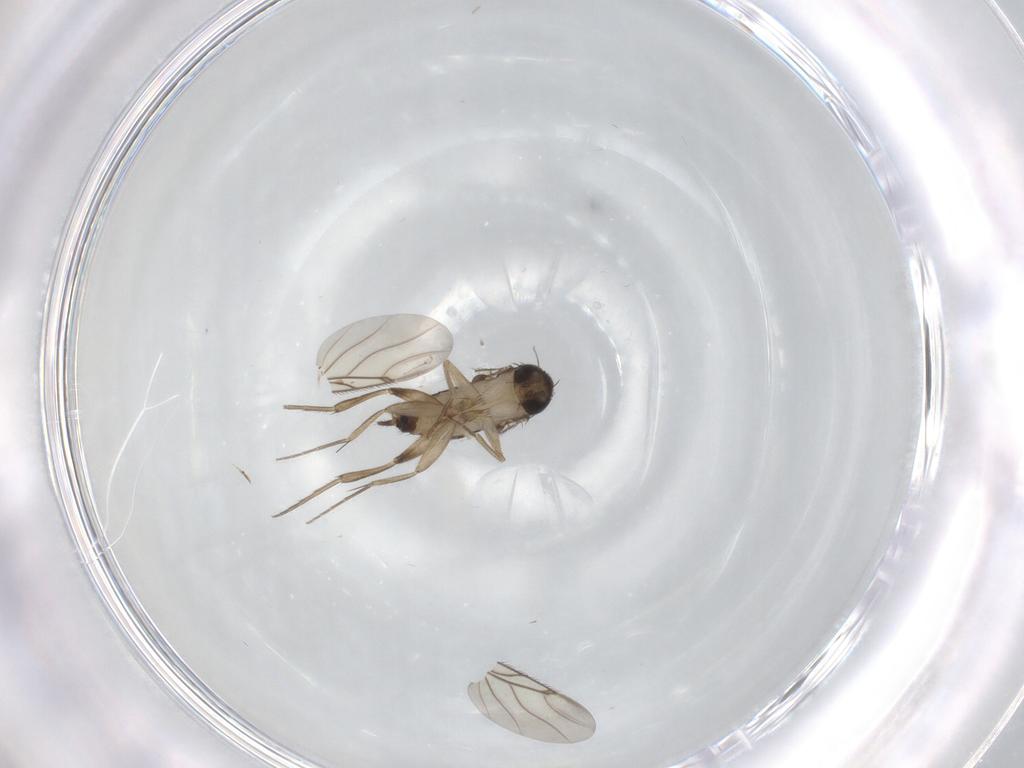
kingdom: Animalia
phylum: Arthropoda
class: Insecta
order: Diptera
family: Phoridae
